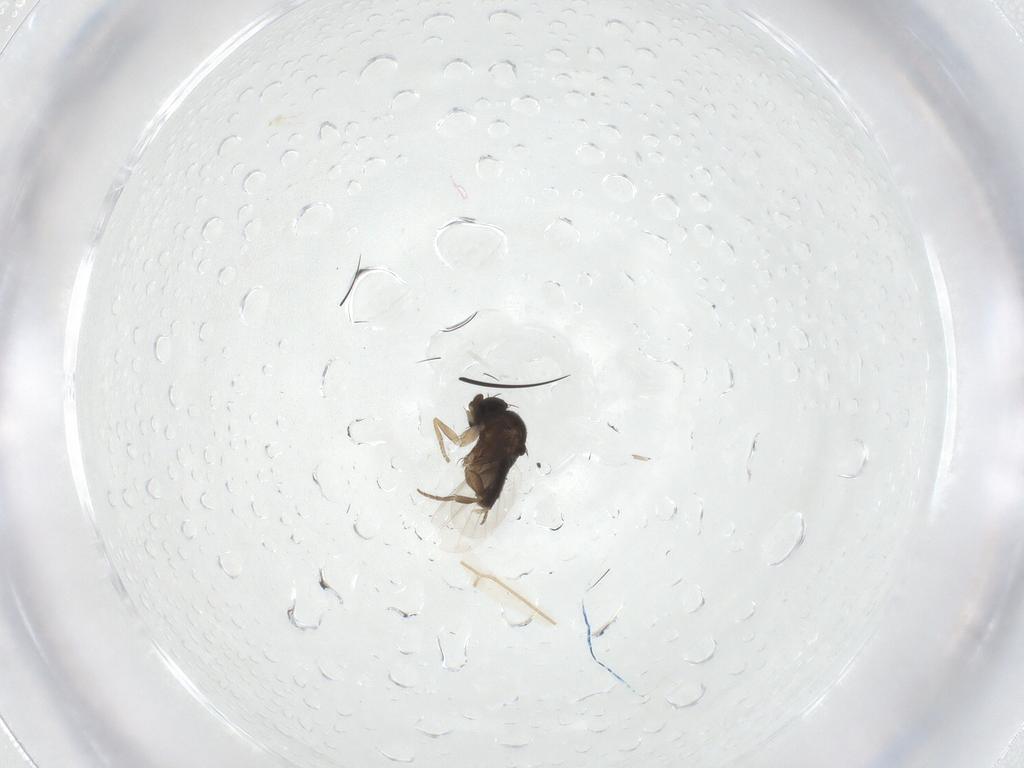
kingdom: Animalia
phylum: Arthropoda
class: Insecta
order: Diptera
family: Phoridae
